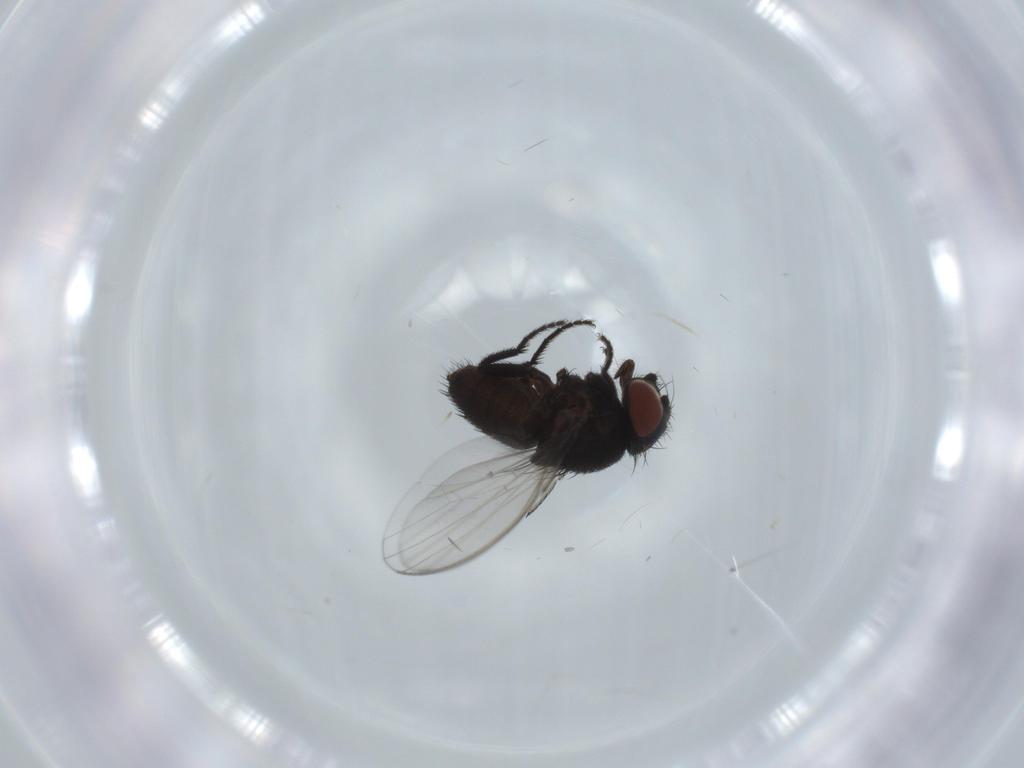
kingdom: Animalia
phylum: Arthropoda
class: Insecta
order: Diptera
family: Milichiidae
